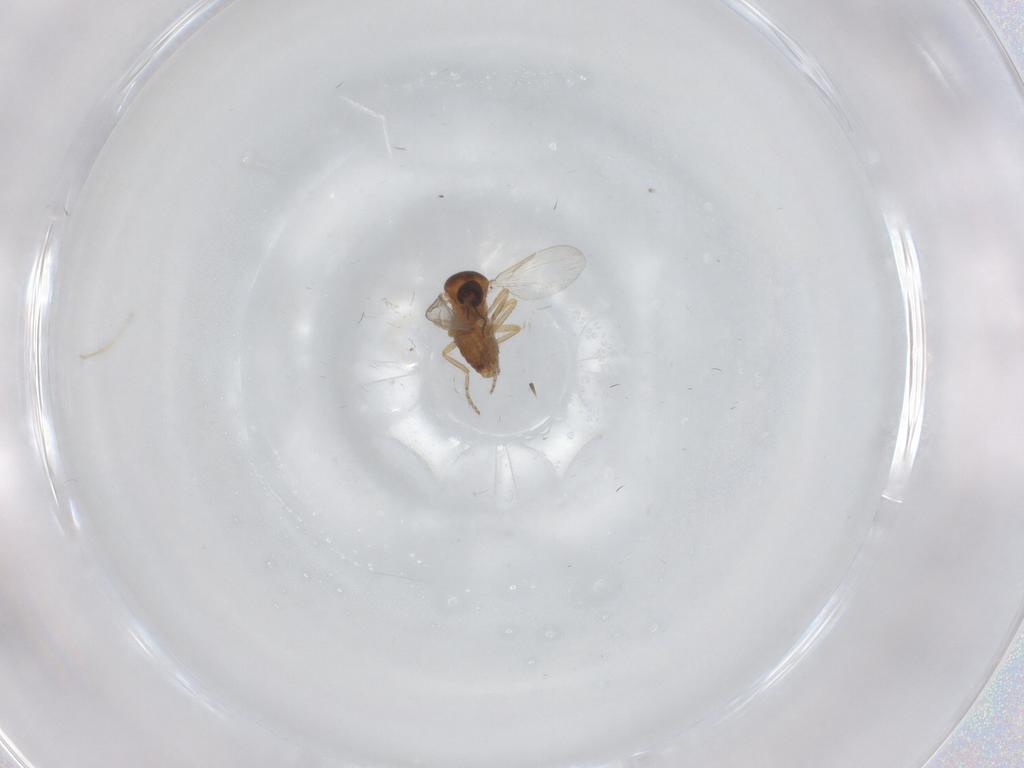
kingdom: Animalia
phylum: Arthropoda
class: Insecta
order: Diptera
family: Ceratopogonidae
